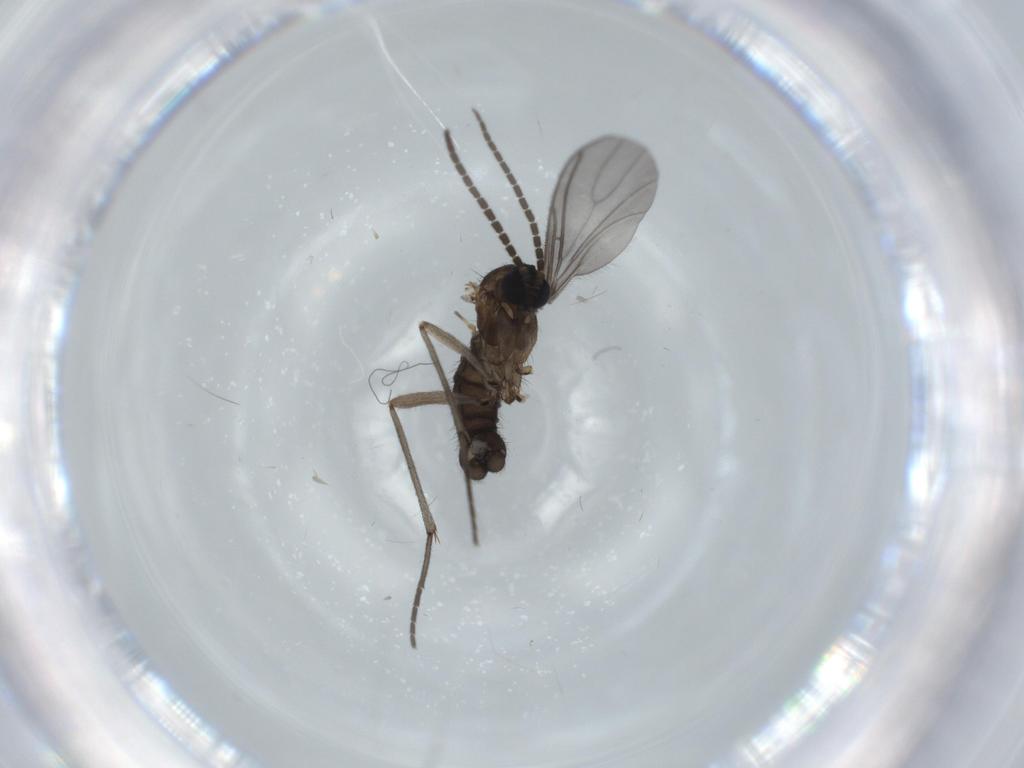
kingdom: Animalia
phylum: Arthropoda
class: Insecta
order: Diptera
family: Sciaridae
